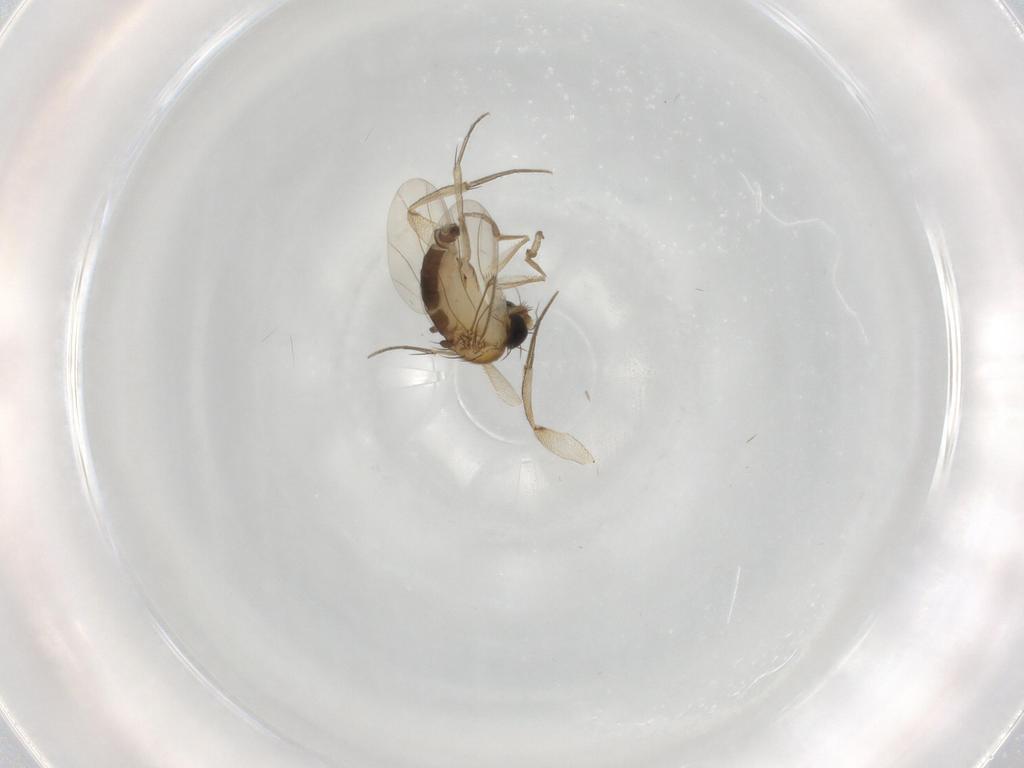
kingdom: Animalia
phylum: Arthropoda
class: Insecta
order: Diptera
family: Phoridae
